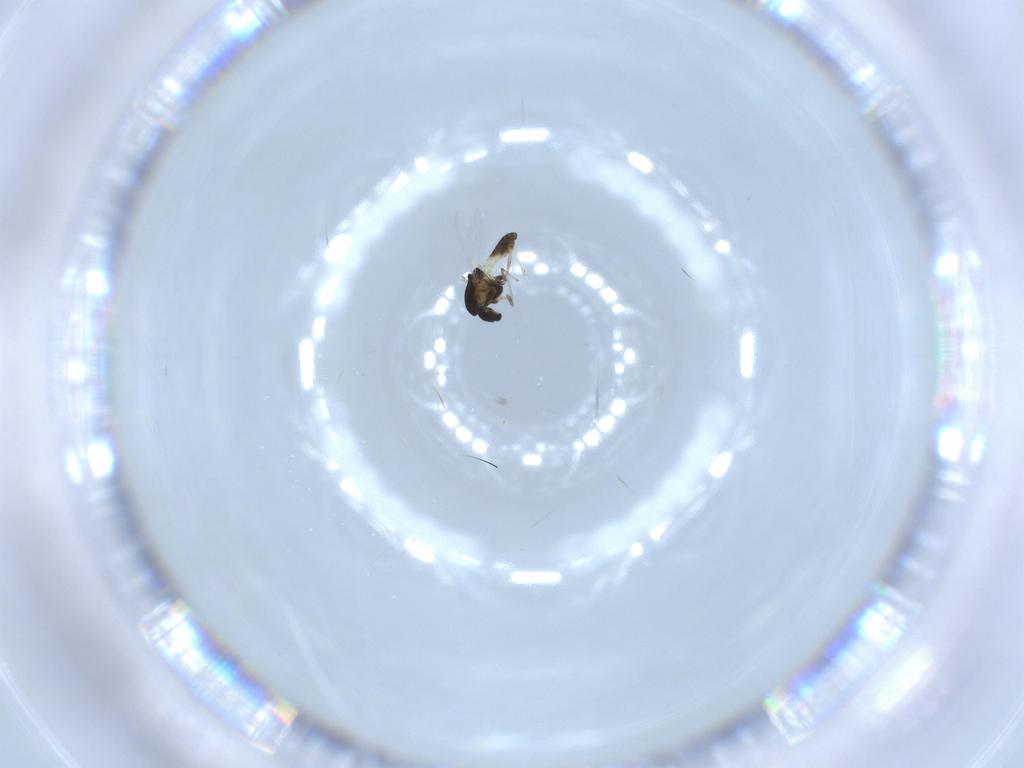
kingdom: Animalia
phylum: Arthropoda
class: Insecta
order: Diptera
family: Chironomidae
